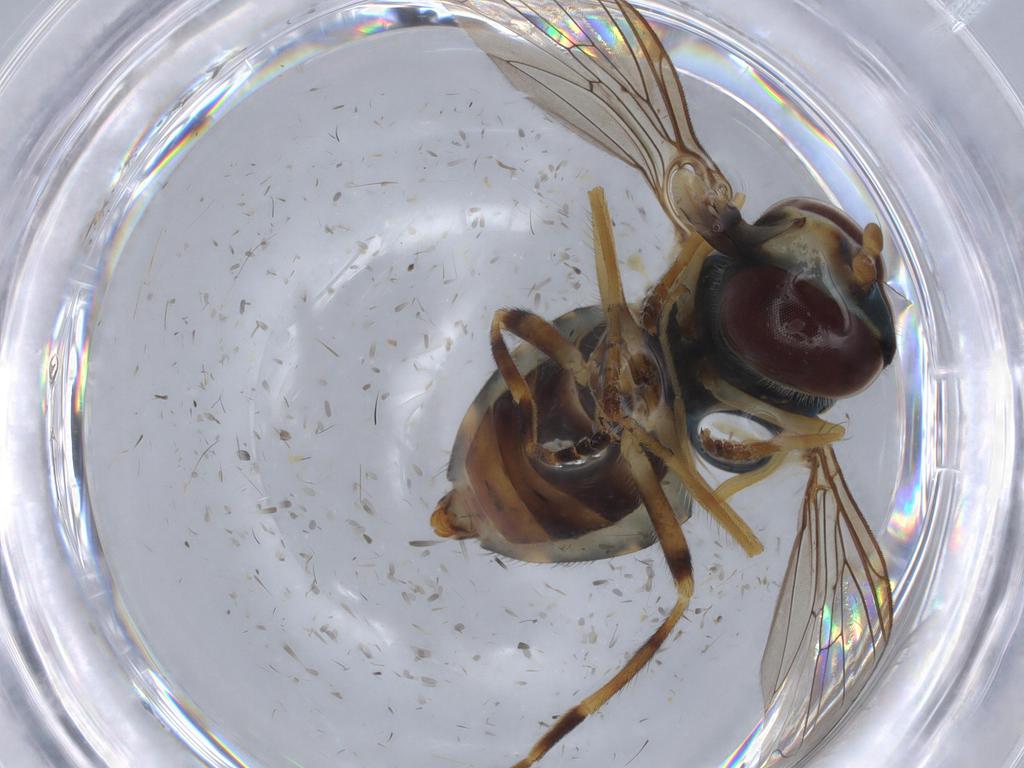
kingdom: Animalia
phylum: Arthropoda
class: Insecta
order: Diptera
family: Syrphidae
